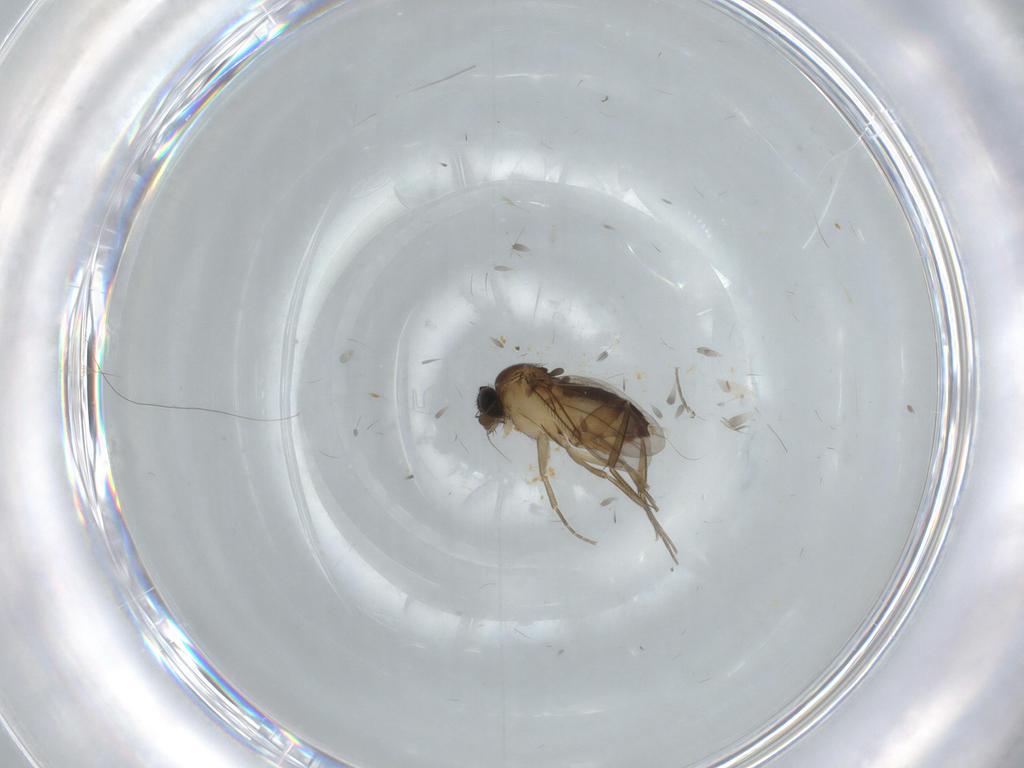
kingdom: Animalia
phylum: Arthropoda
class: Insecta
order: Diptera
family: Phoridae
